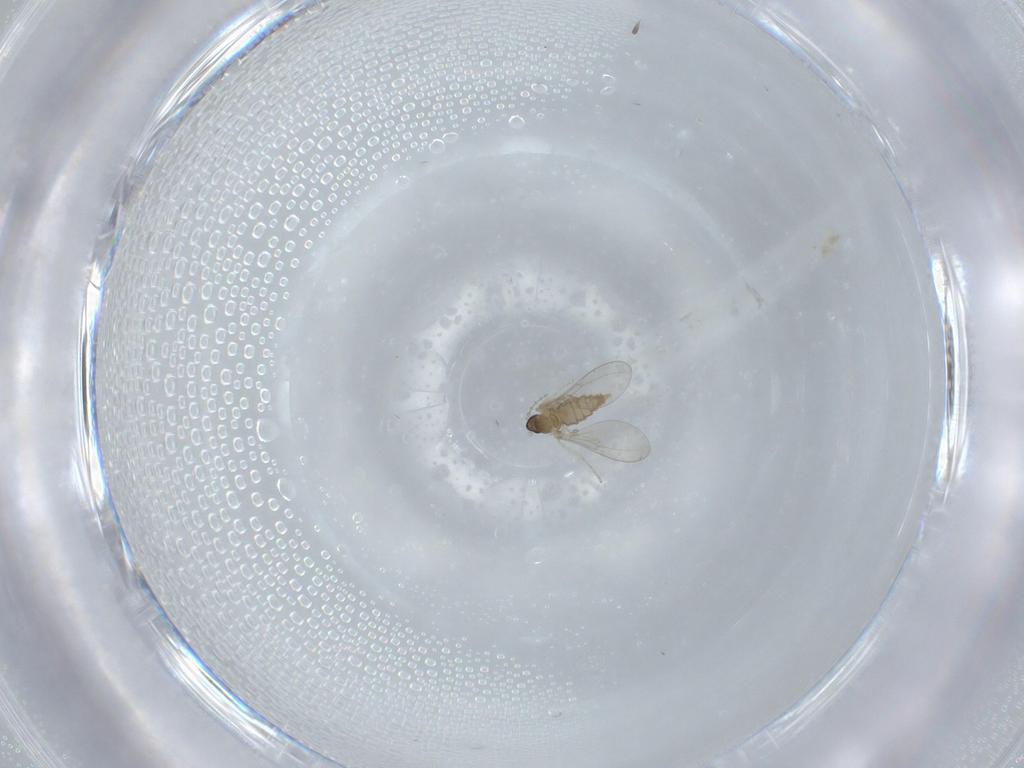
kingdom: Animalia
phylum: Arthropoda
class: Insecta
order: Diptera
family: Cecidomyiidae
